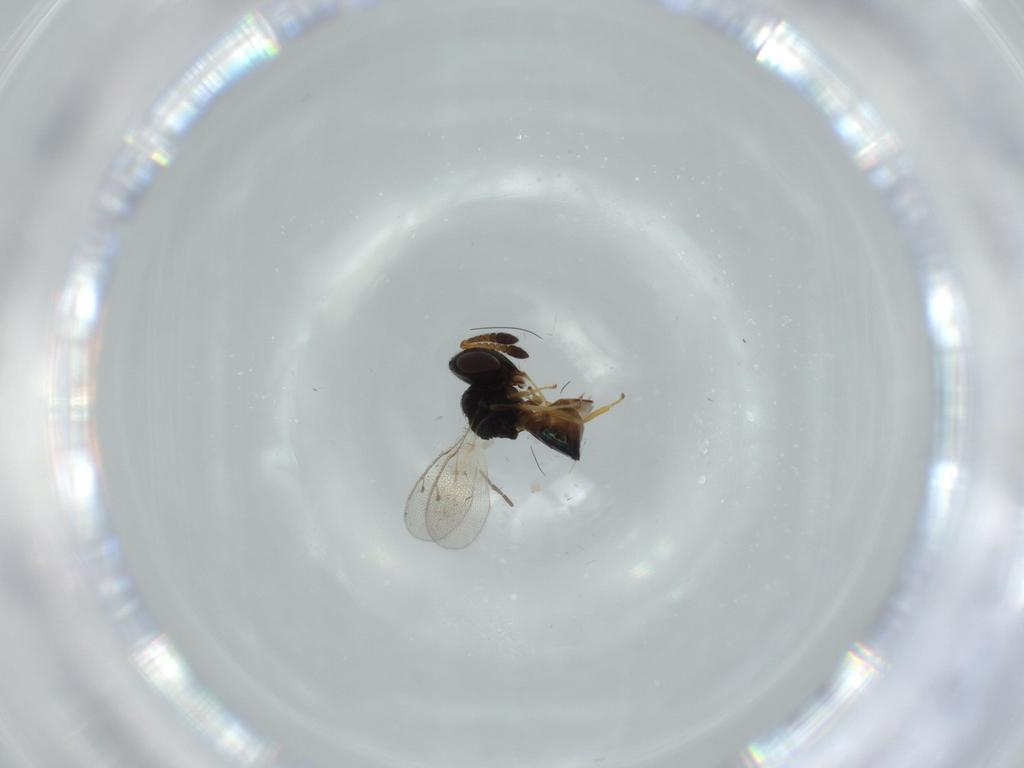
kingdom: Animalia
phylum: Arthropoda
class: Insecta
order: Hymenoptera
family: Pteromalidae
